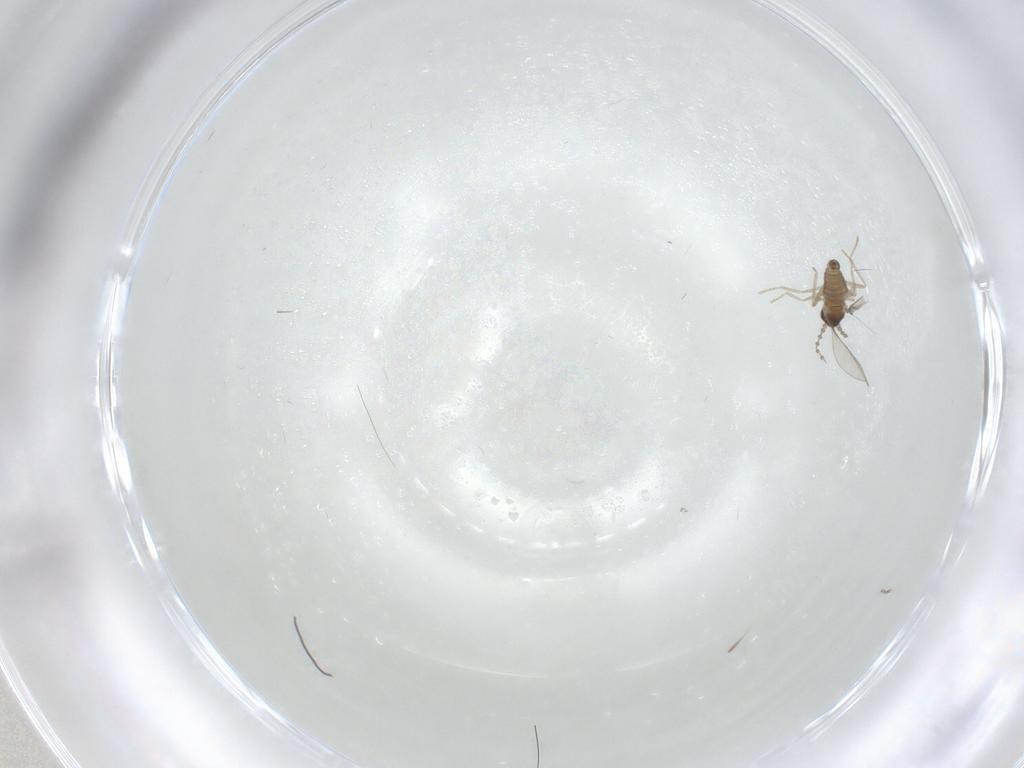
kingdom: Animalia
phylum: Arthropoda
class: Insecta
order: Diptera
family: Cecidomyiidae
